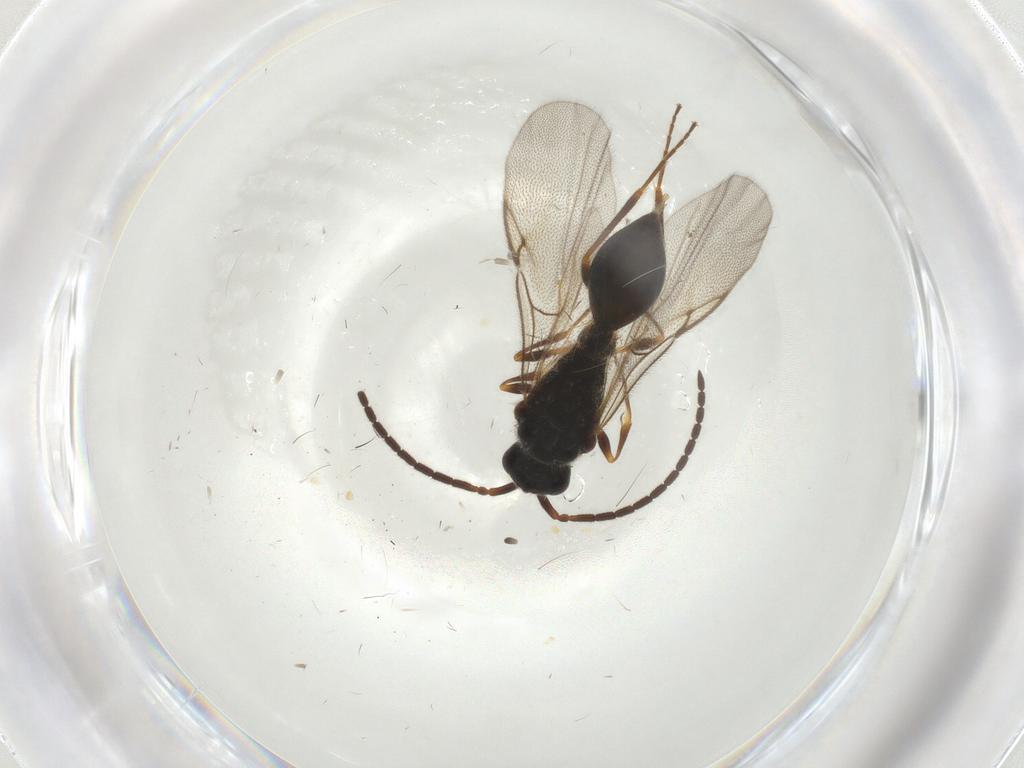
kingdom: Animalia
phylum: Arthropoda
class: Insecta
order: Hymenoptera
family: Diapriidae
